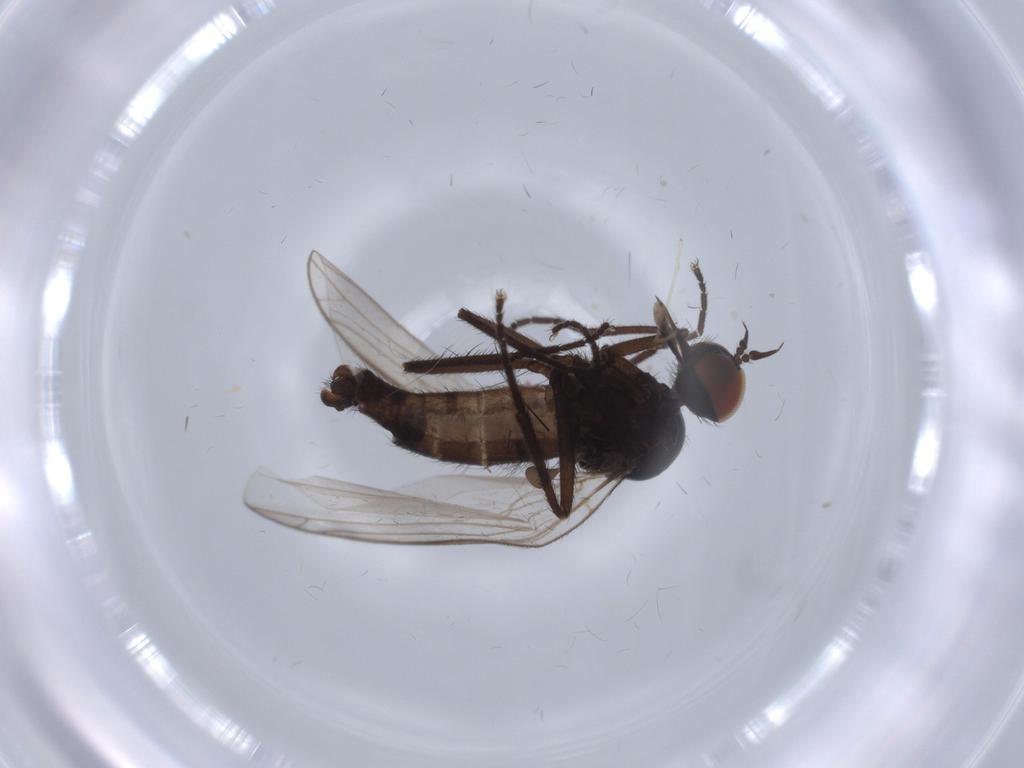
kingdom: Animalia
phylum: Arthropoda
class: Insecta
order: Diptera
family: Empididae
